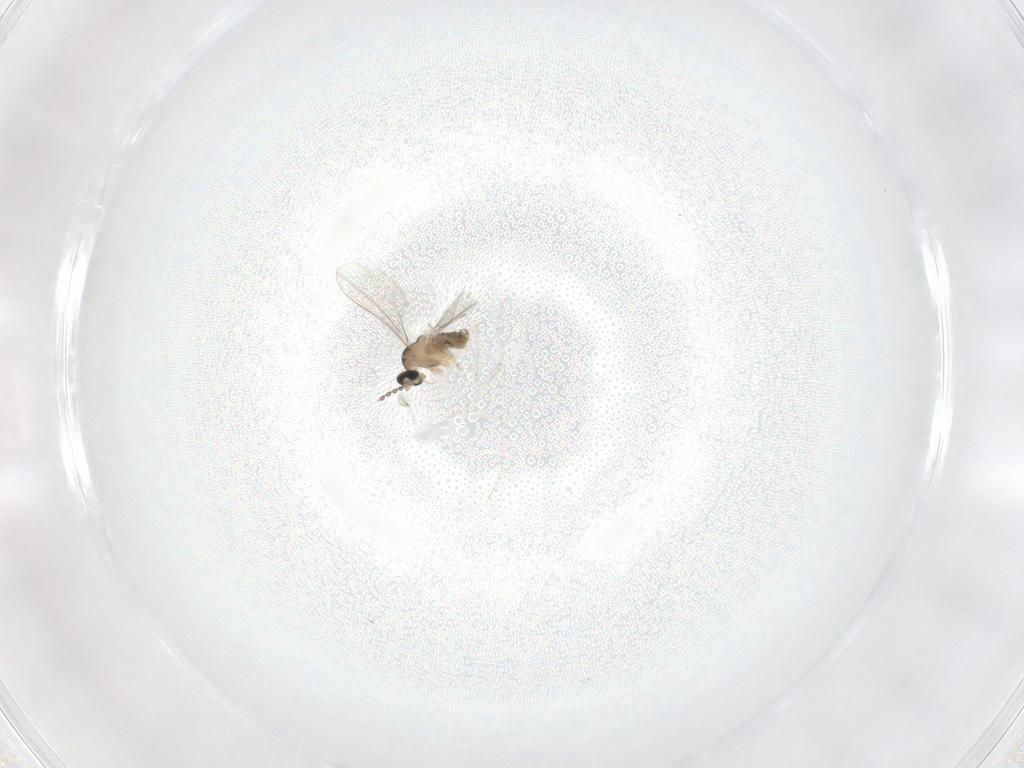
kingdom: Animalia
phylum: Arthropoda
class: Insecta
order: Diptera
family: Cecidomyiidae
